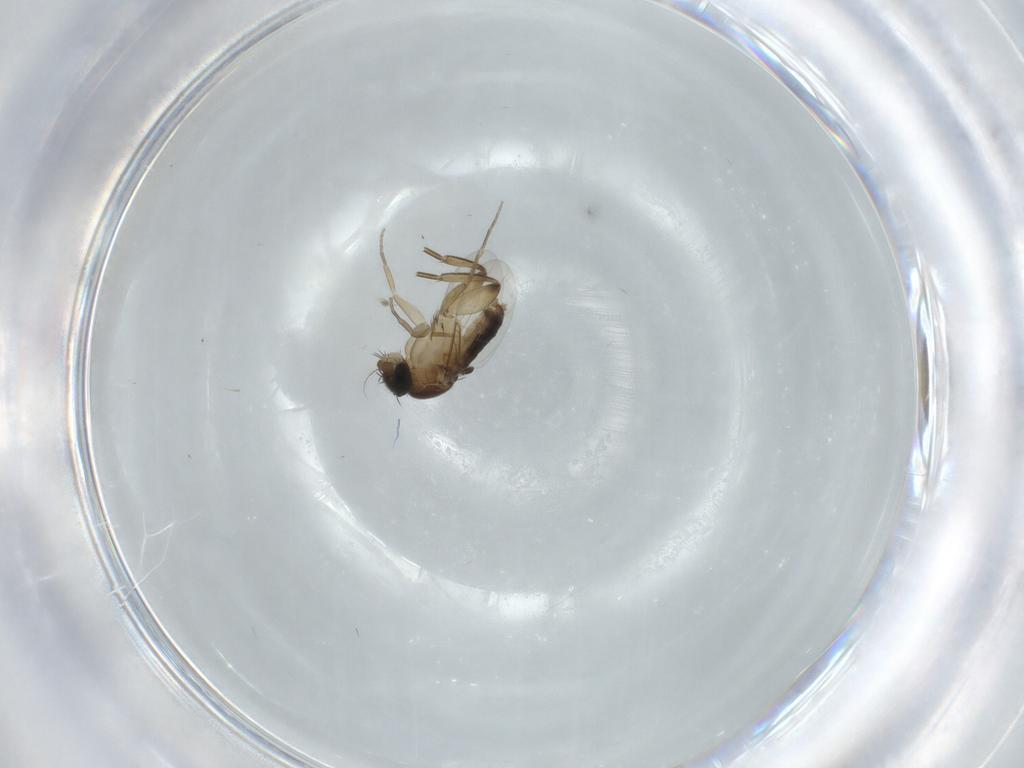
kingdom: Animalia
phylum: Arthropoda
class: Insecta
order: Diptera
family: Phoridae
